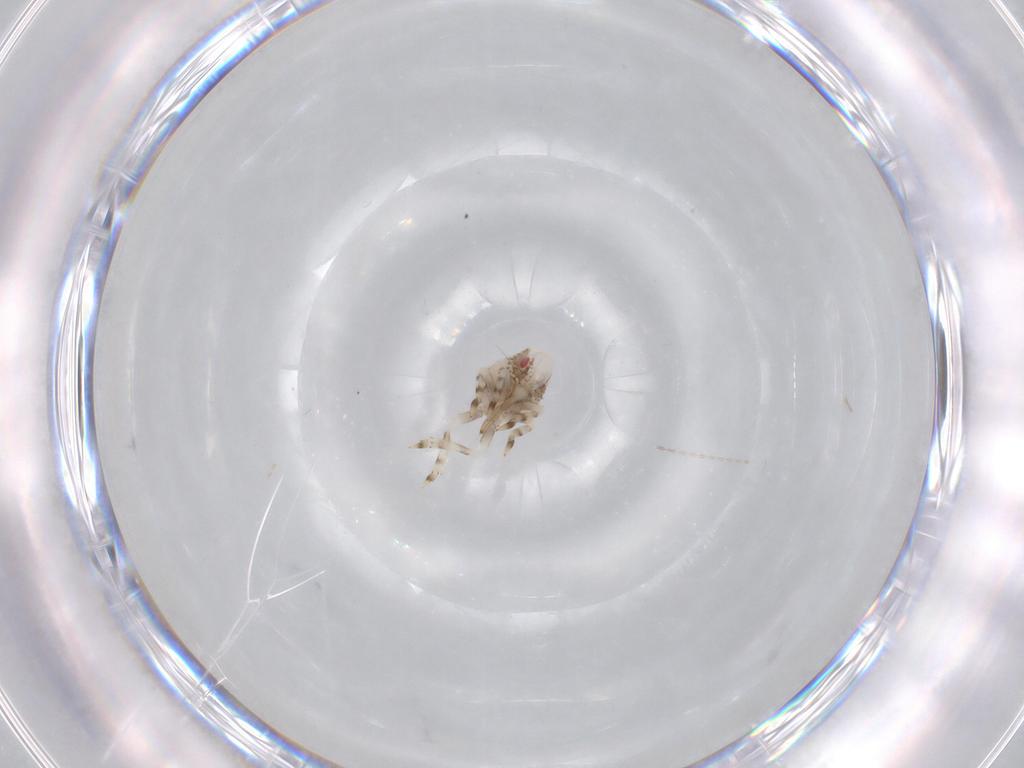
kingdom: Animalia
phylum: Arthropoda
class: Insecta
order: Hemiptera
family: Acanaloniidae
